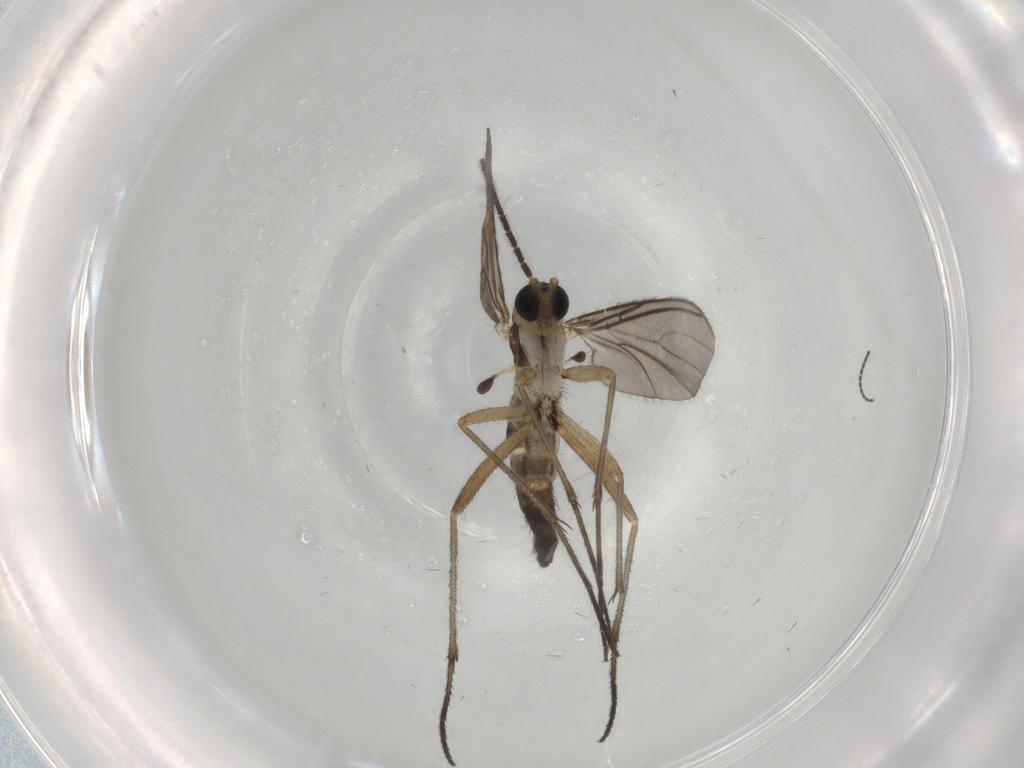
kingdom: Animalia
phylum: Arthropoda
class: Insecta
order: Diptera
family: Sciaridae
